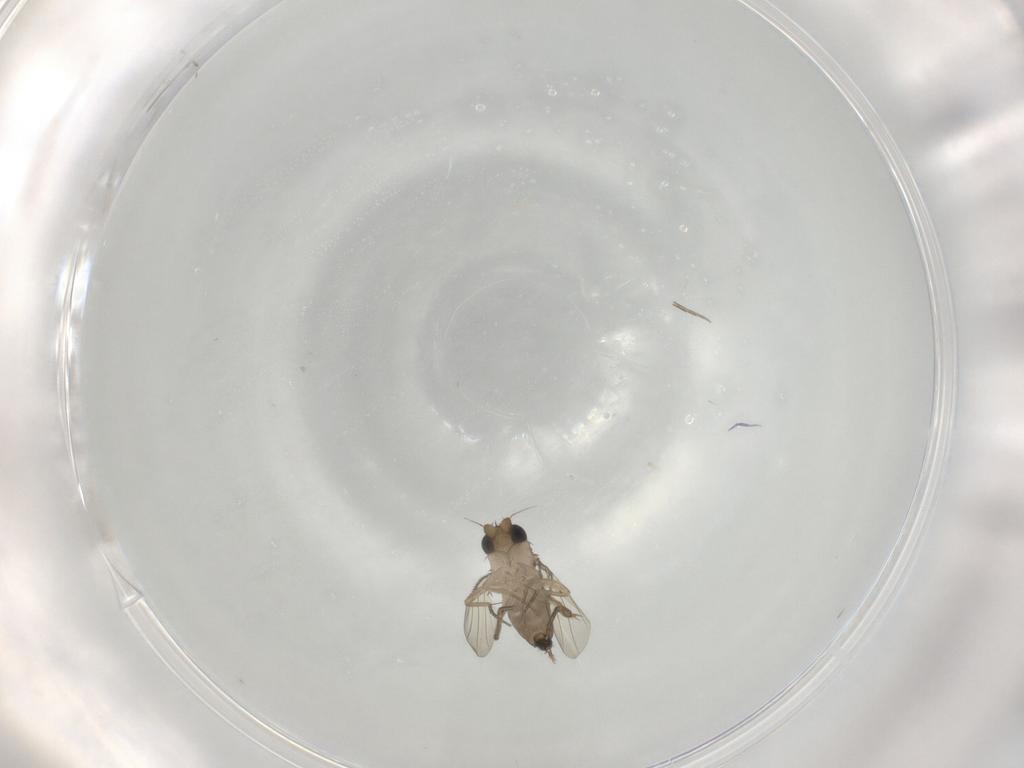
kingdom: Animalia
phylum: Arthropoda
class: Insecta
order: Diptera
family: Phoridae
